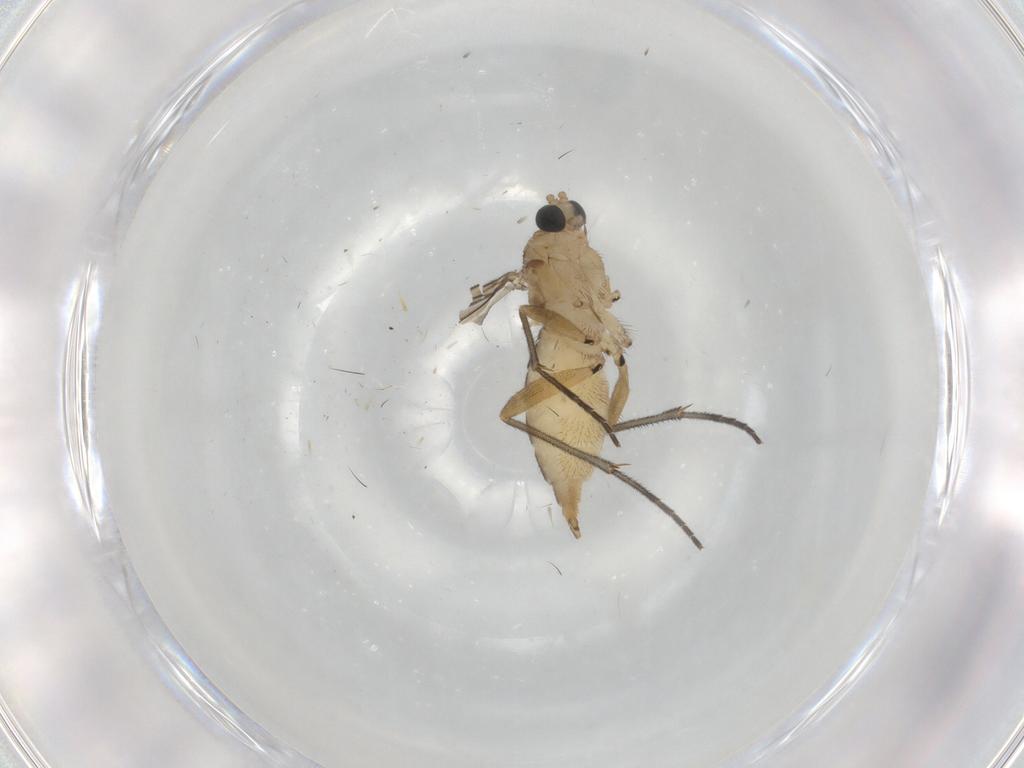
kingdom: Animalia
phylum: Arthropoda
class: Insecta
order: Diptera
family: Sciaridae
